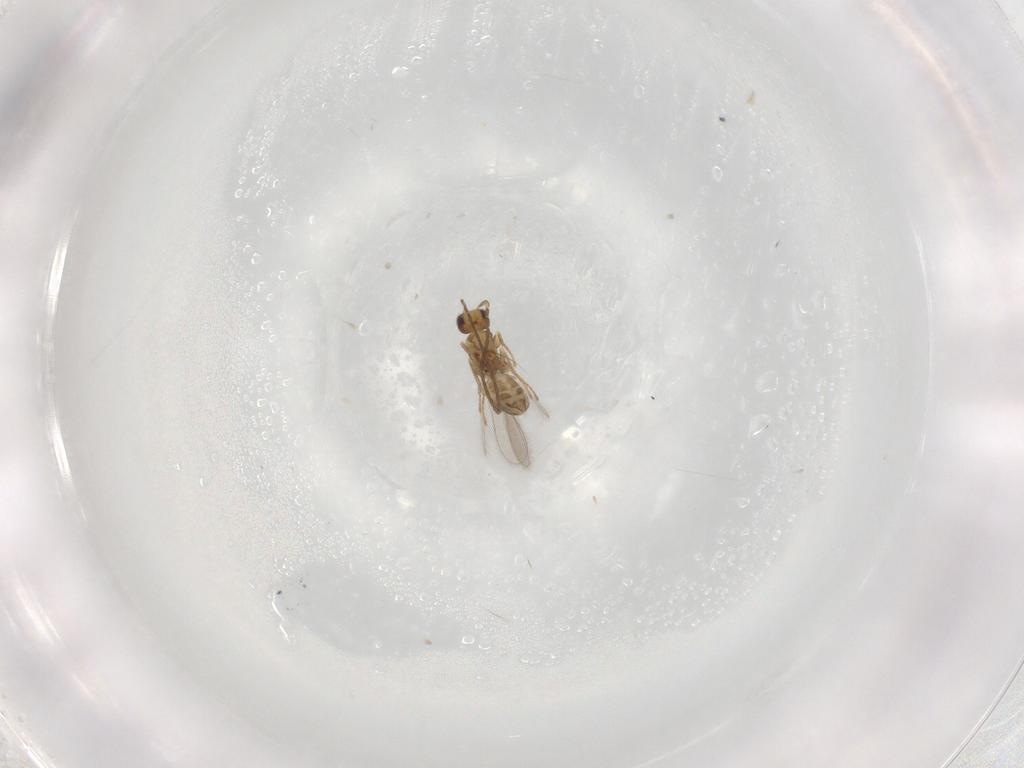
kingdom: Animalia
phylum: Arthropoda
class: Insecta
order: Hymenoptera
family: Mymaridae
